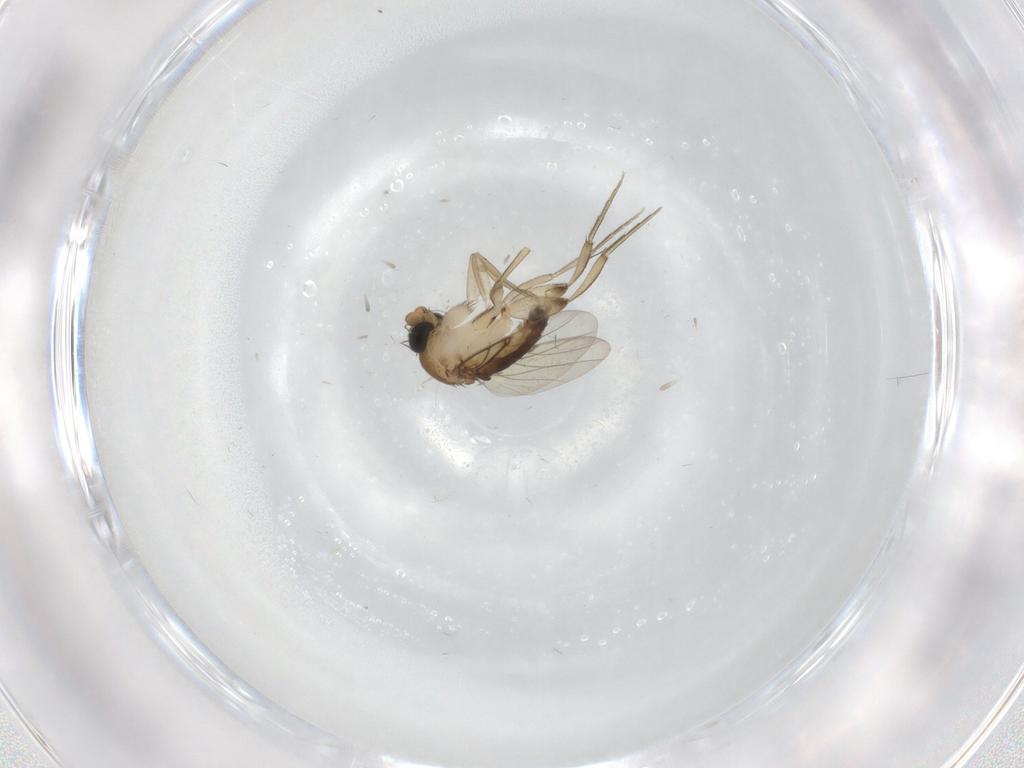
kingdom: Animalia
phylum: Arthropoda
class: Insecta
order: Diptera
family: Phoridae
